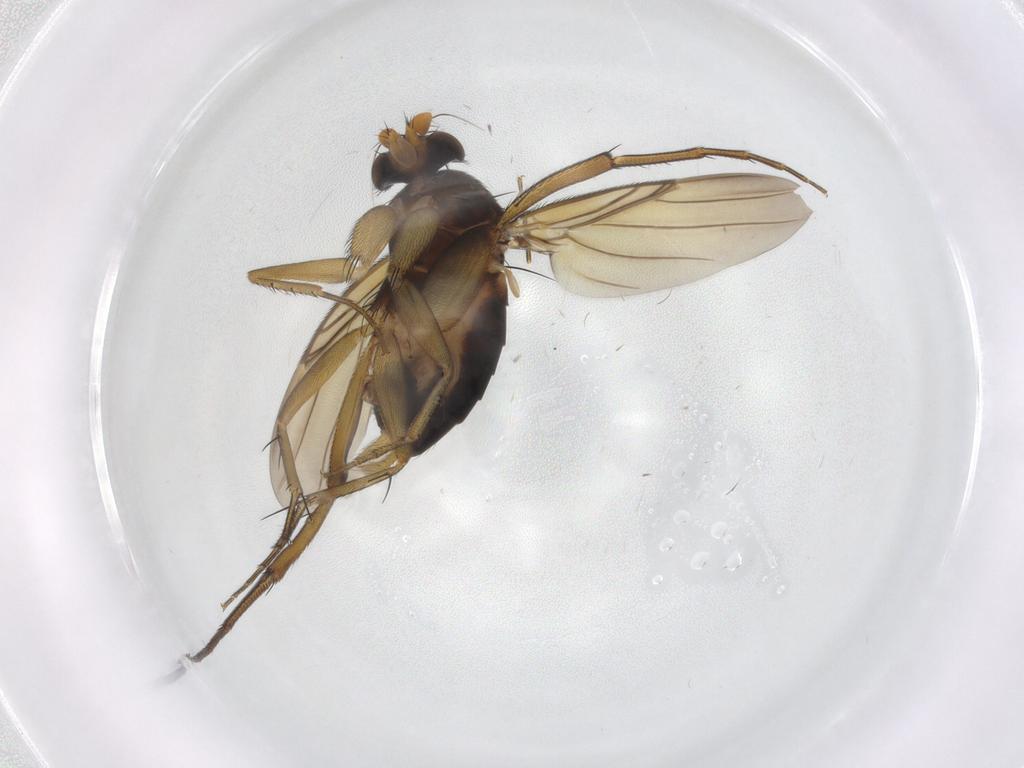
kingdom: Animalia
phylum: Arthropoda
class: Insecta
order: Diptera
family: Phoridae
